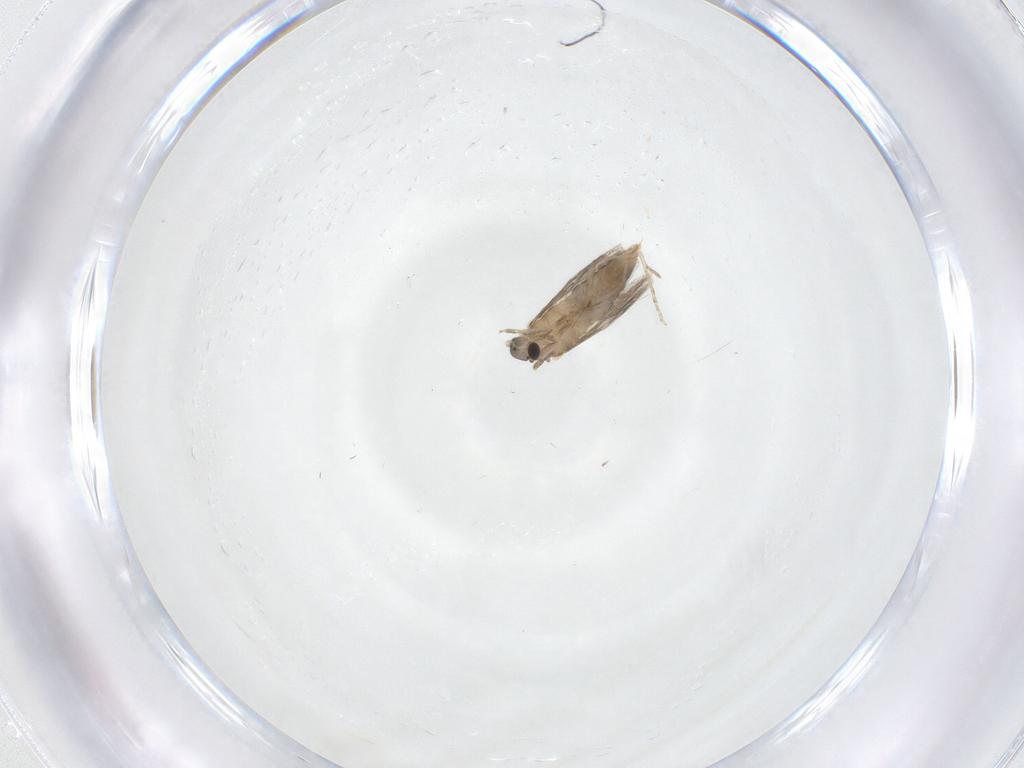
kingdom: Animalia
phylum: Arthropoda
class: Insecta
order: Trichoptera
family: Hydroptilidae
